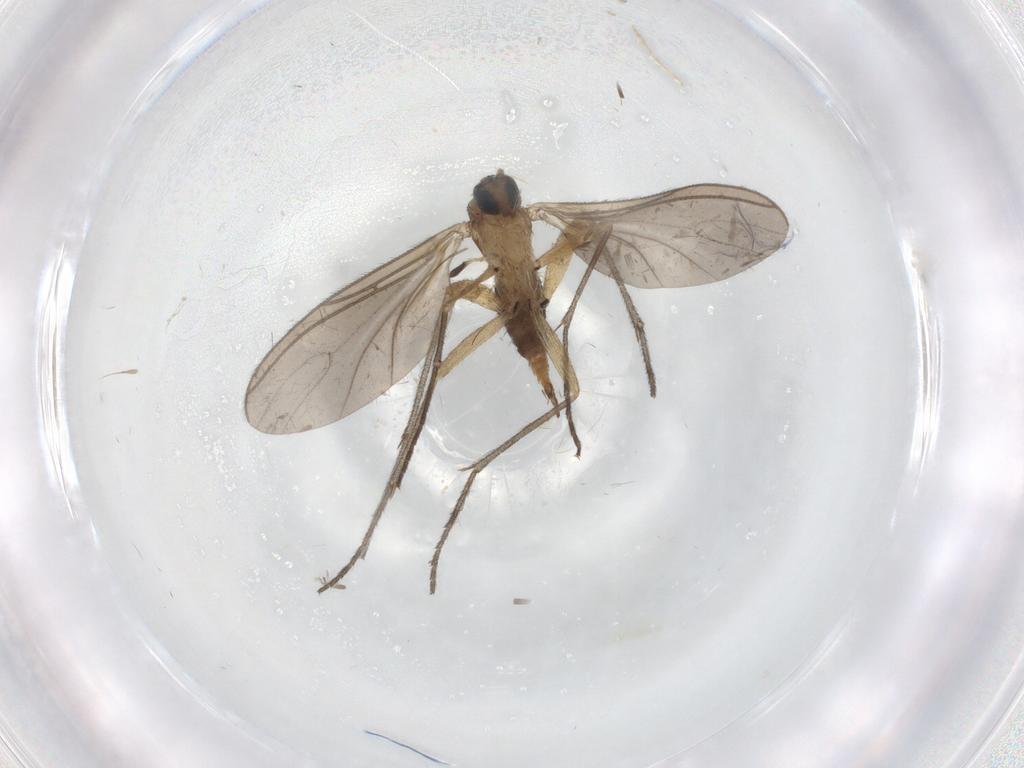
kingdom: Animalia
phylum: Arthropoda
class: Insecta
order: Diptera
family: Sciaridae
